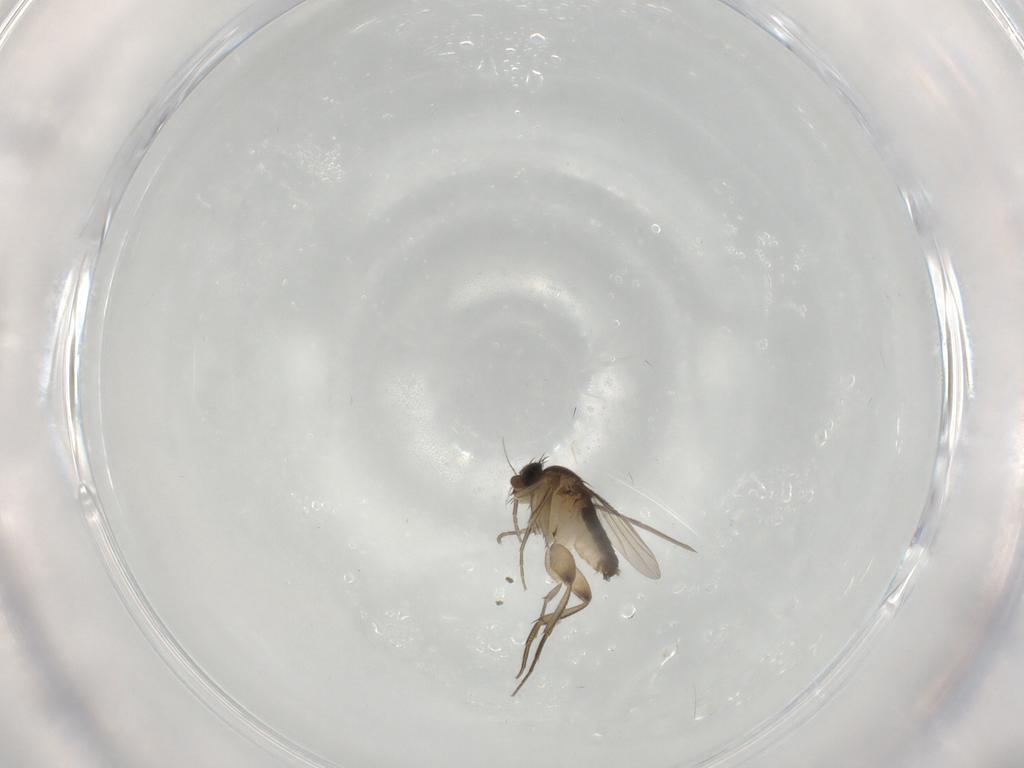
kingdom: Animalia
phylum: Arthropoda
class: Insecta
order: Diptera
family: Phoridae
